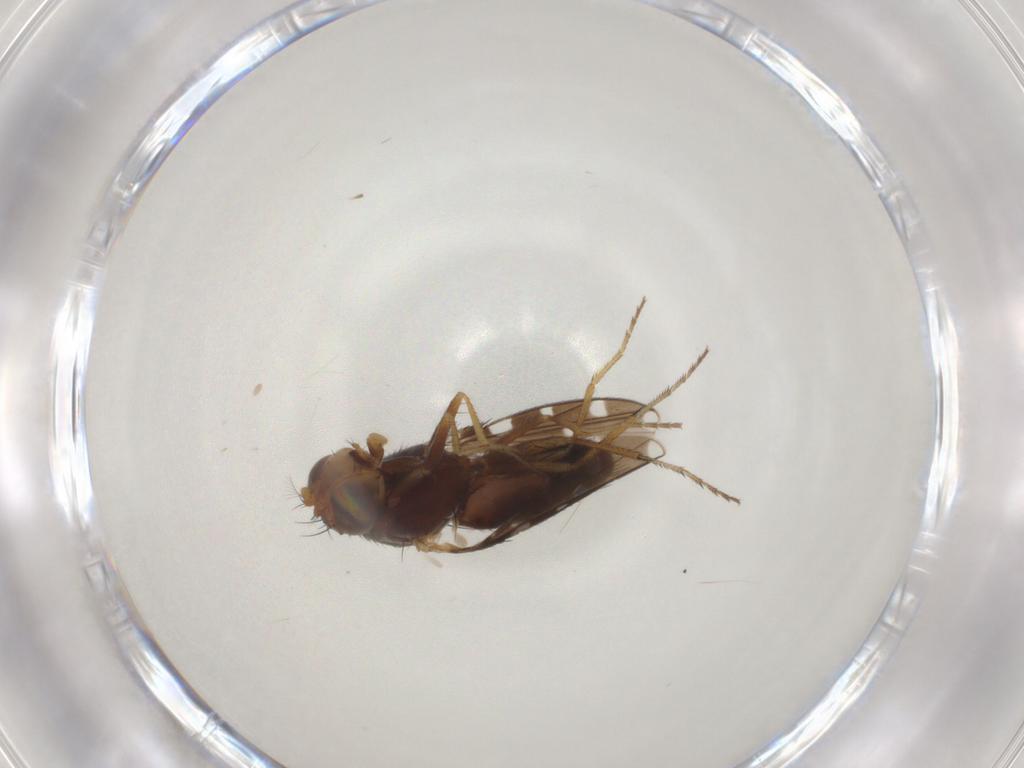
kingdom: Animalia
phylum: Arthropoda
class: Insecta
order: Diptera
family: Ephydridae
